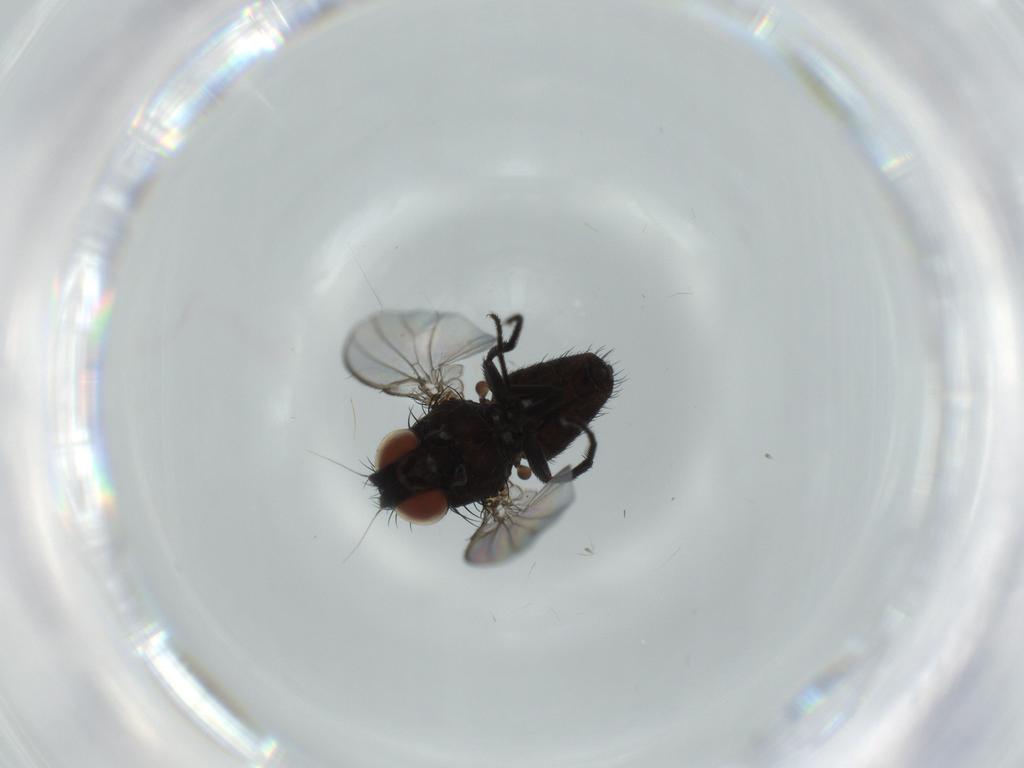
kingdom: Animalia
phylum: Arthropoda
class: Insecta
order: Diptera
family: Milichiidae
